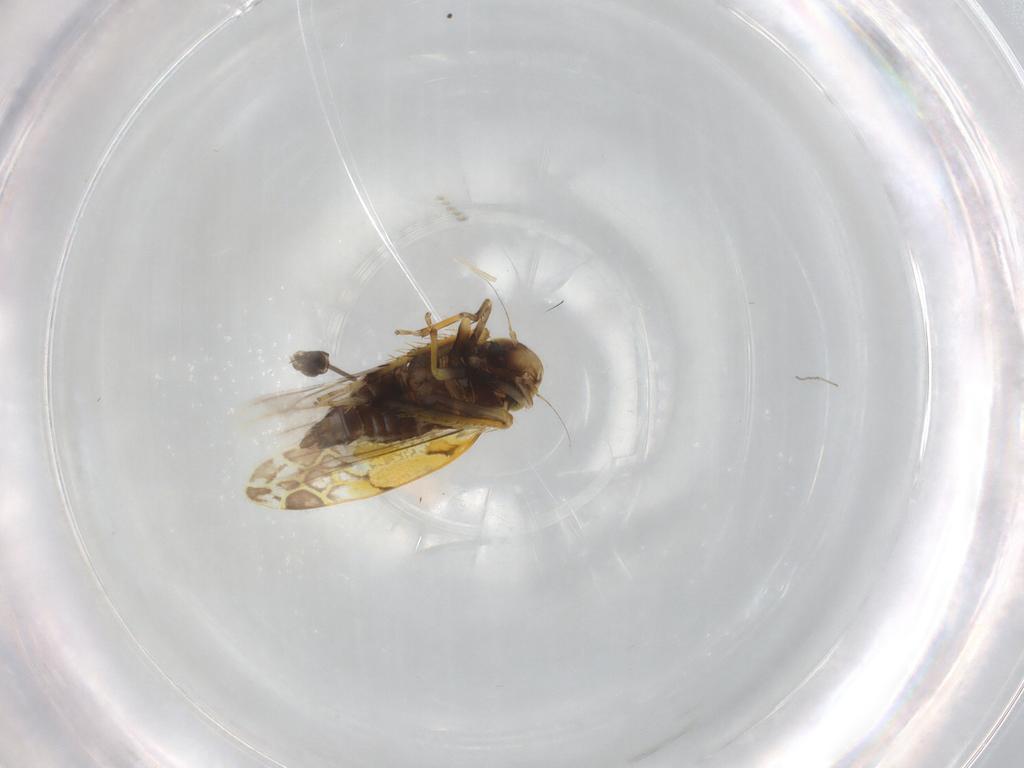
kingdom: Animalia
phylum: Arthropoda
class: Insecta
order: Hemiptera
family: Cicadellidae
